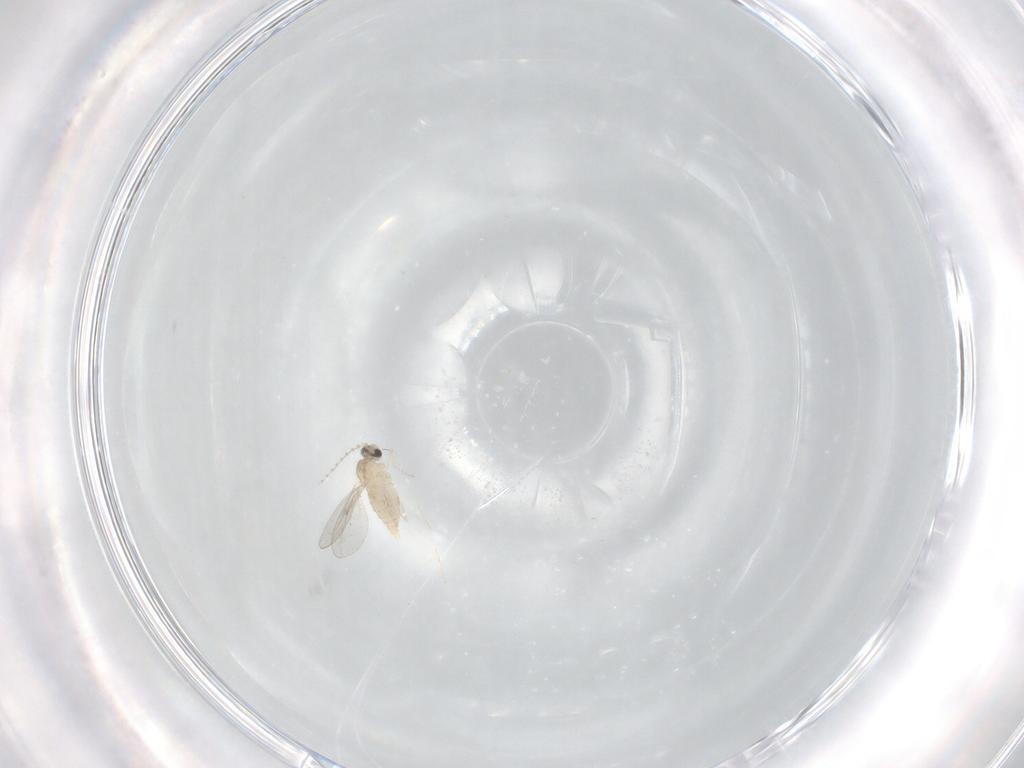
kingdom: Animalia
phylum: Arthropoda
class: Insecta
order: Diptera
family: Cecidomyiidae
